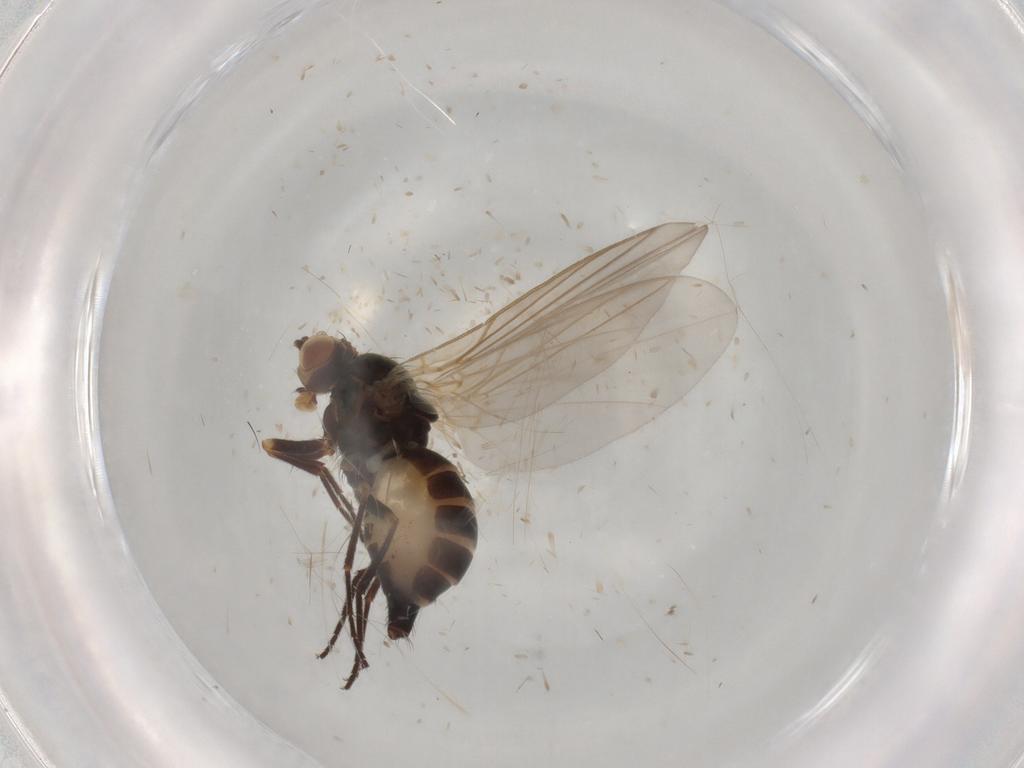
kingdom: Animalia
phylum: Arthropoda
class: Insecta
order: Diptera
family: Ceratopogonidae
